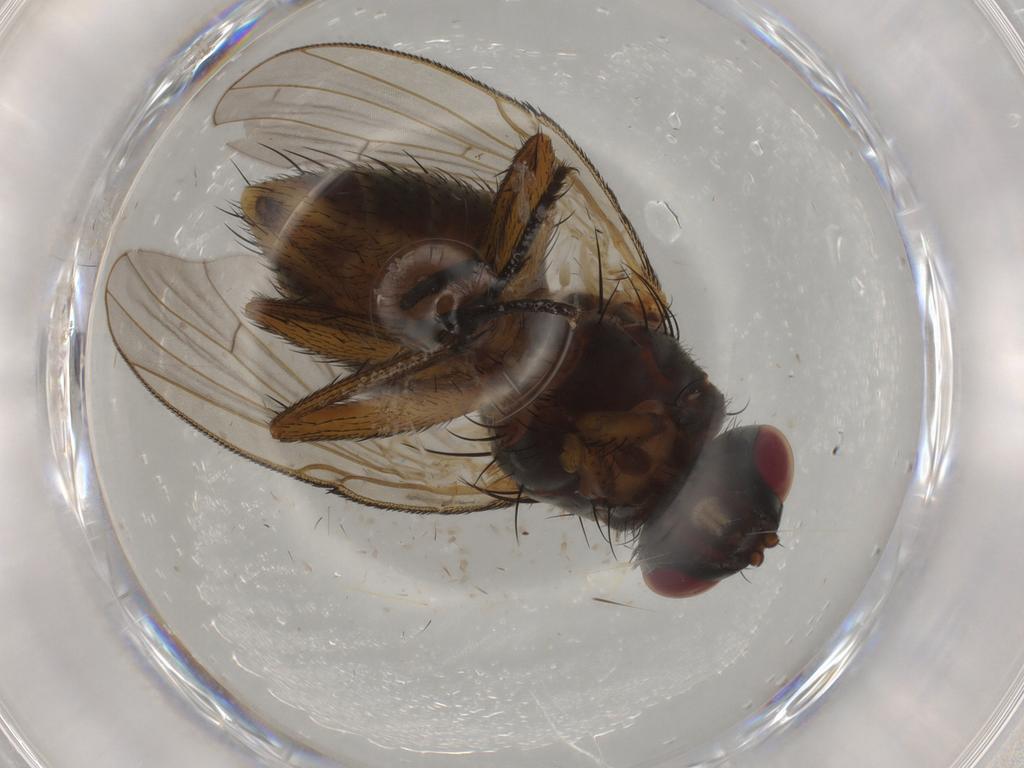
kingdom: Animalia
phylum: Arthropoda
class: Insecta
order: Diptera
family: Muscidae
